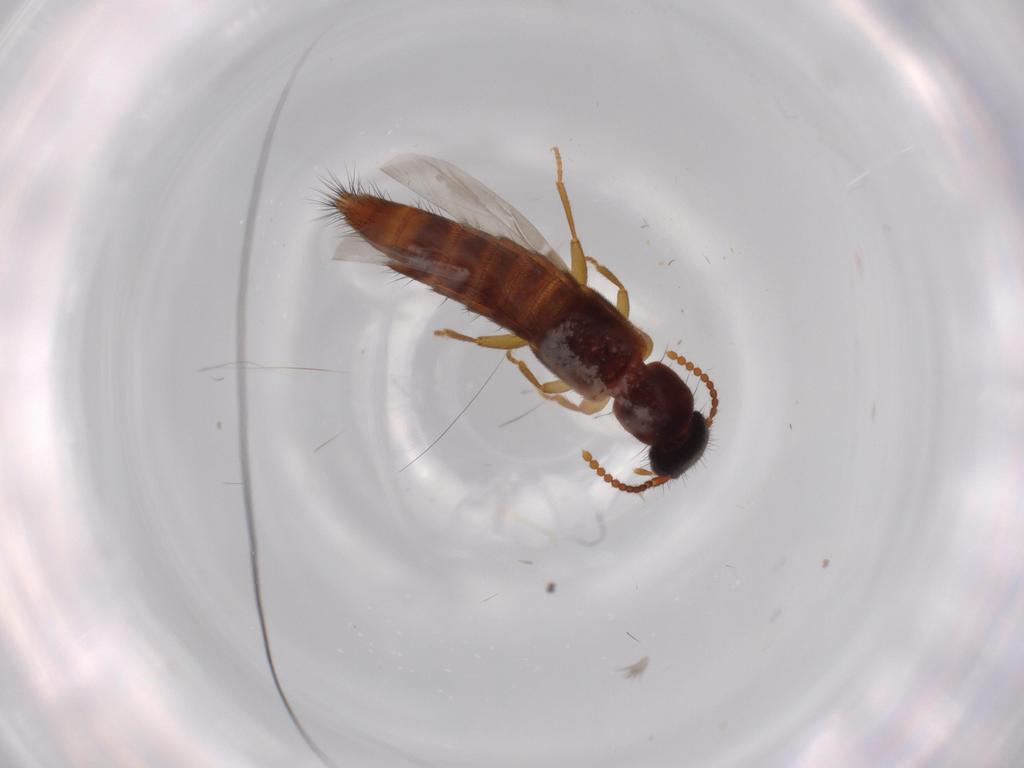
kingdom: Animalia
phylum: Arthropoda
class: Insecta
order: Coleoptera
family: Staphylinidae
